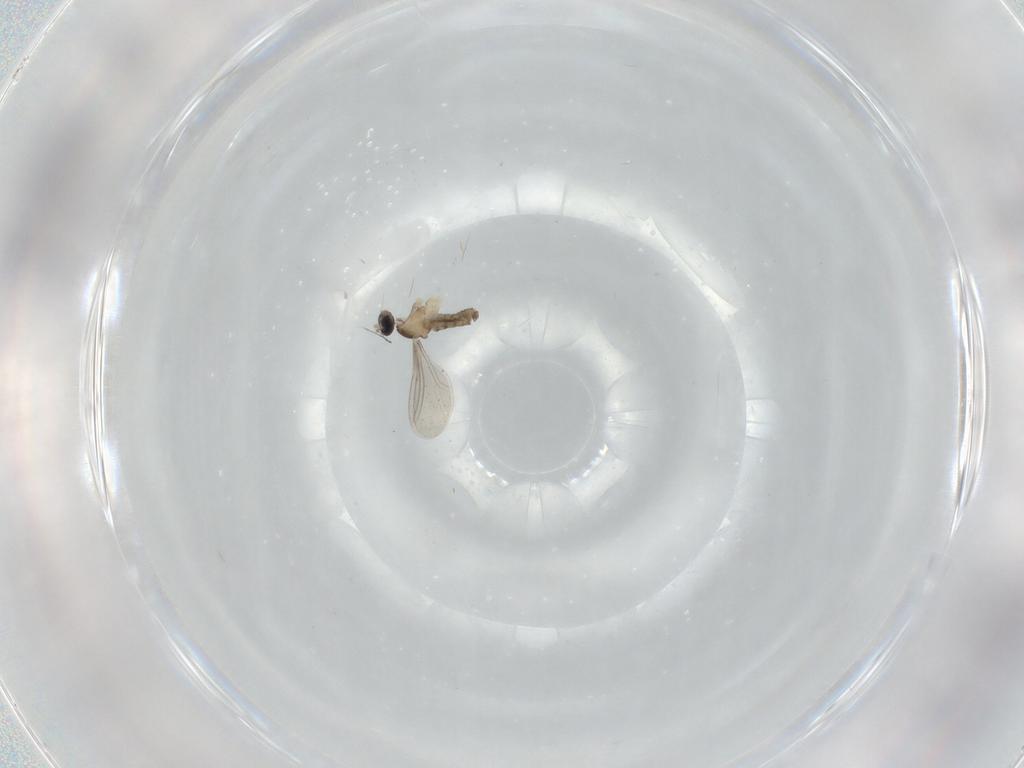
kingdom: Animalia
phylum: Arthropoda
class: Insecta
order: Diptera
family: Cecidomyiidae
